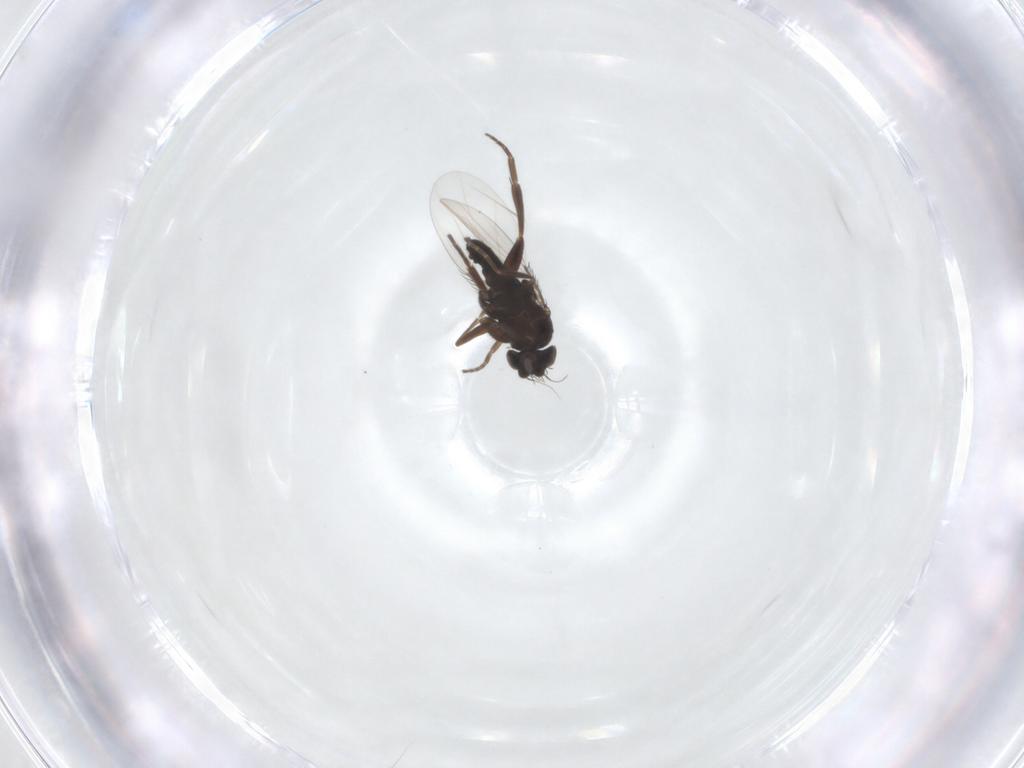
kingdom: Animalia
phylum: Arthropoda
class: Insecta
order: Diptera
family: Phoridae
